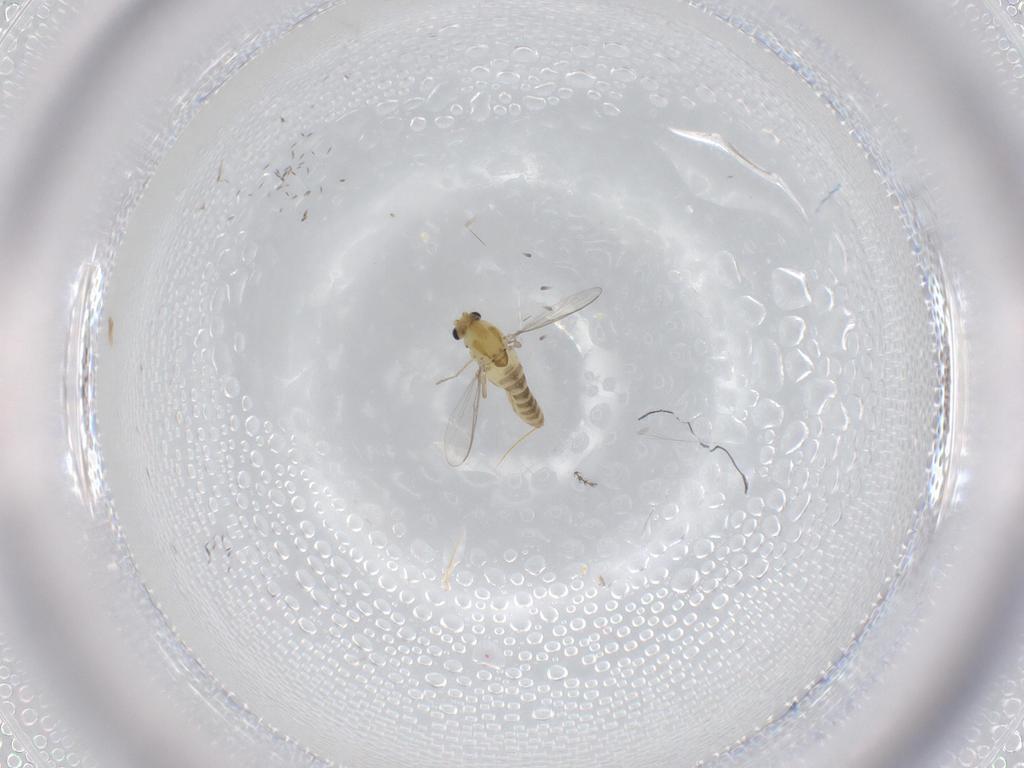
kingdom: Animalia
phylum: Arthropoda
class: Insecta
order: Diptera
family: Chironomidae
